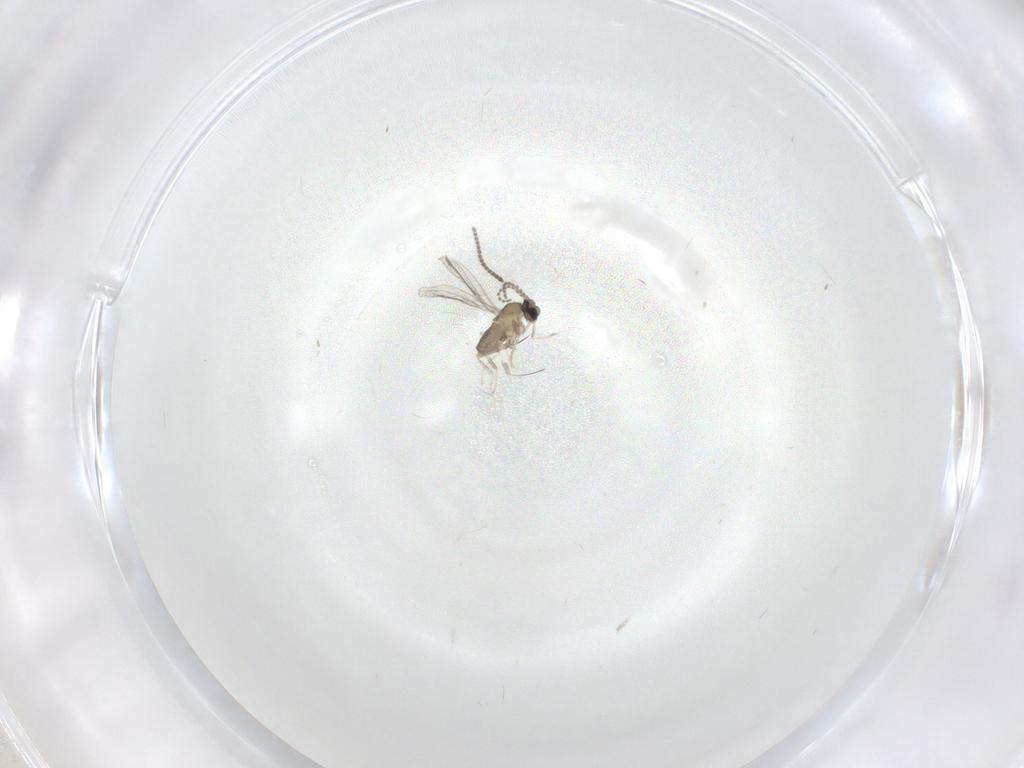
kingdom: Animalia
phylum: Arthropoda
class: Insecta
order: Diptera
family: Cecidomyiidae
